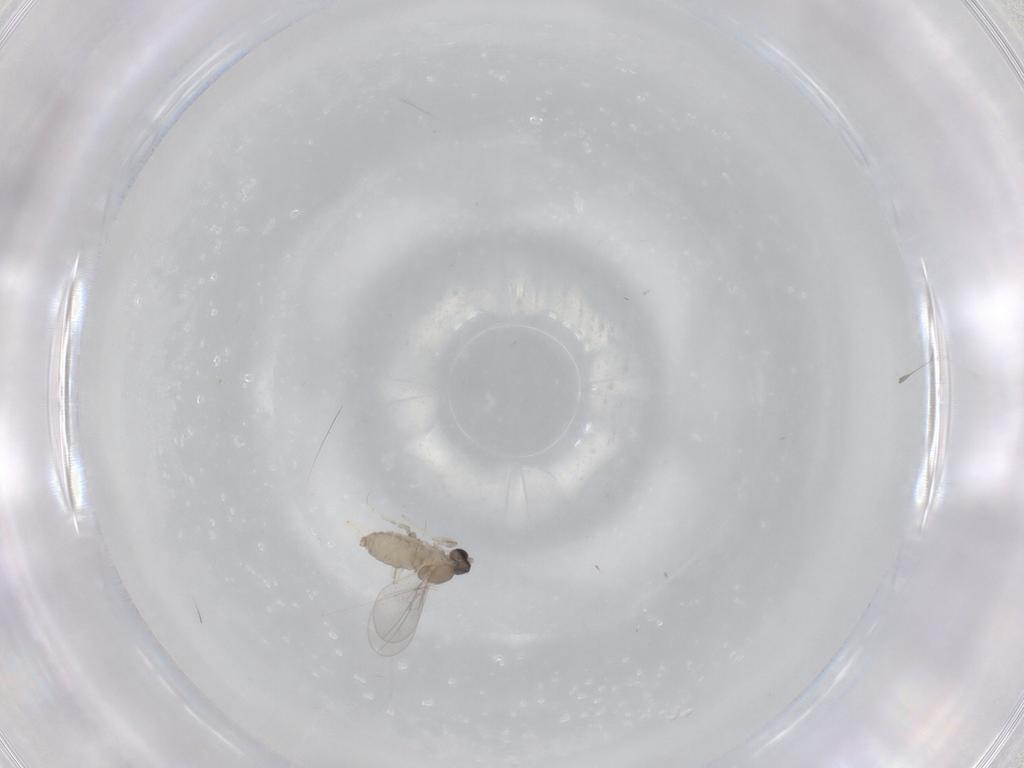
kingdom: Animalia
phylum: Arthropoda
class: Insecta
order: Diptera
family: Cecidomyiidae
